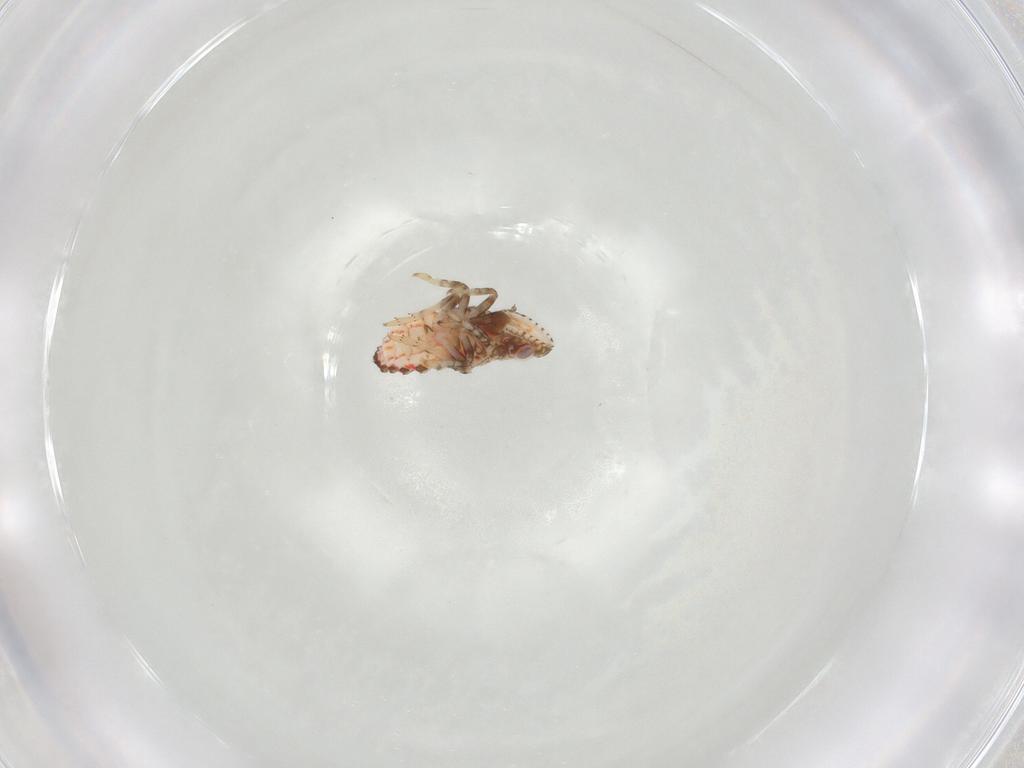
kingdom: Animalia
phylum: Arthropoda
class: Insecta
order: Hemiptera
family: Tropiduchidae
